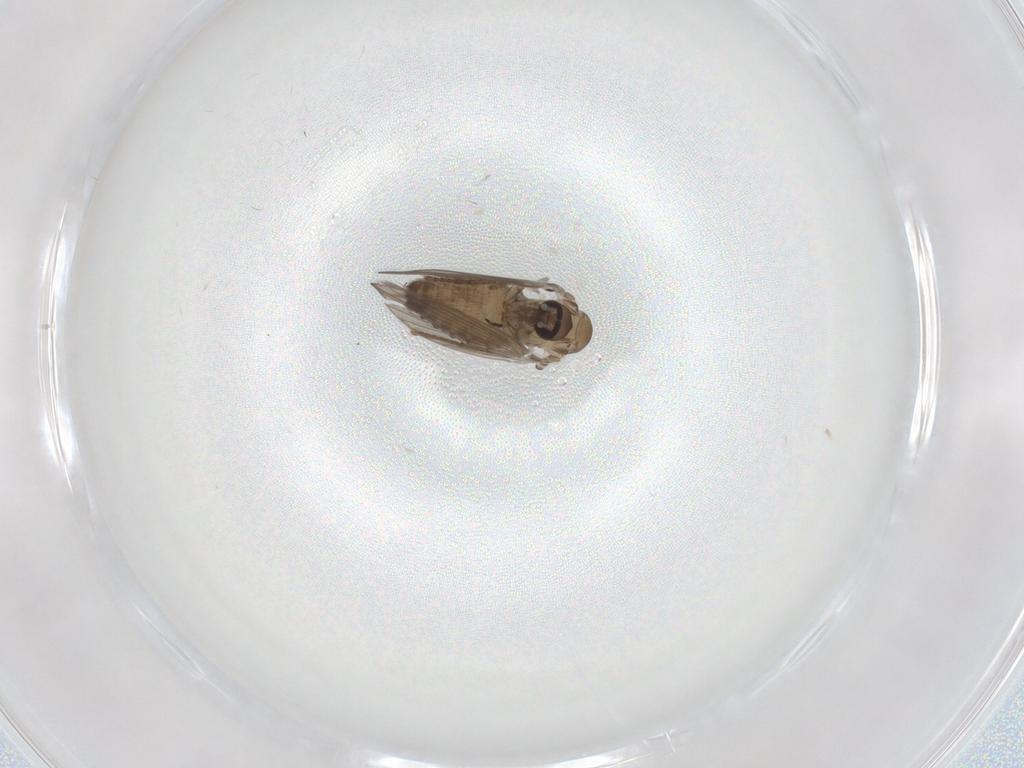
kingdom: Animalia
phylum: Arthropoda
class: Insecta
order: Diptera
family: Psychodidae
